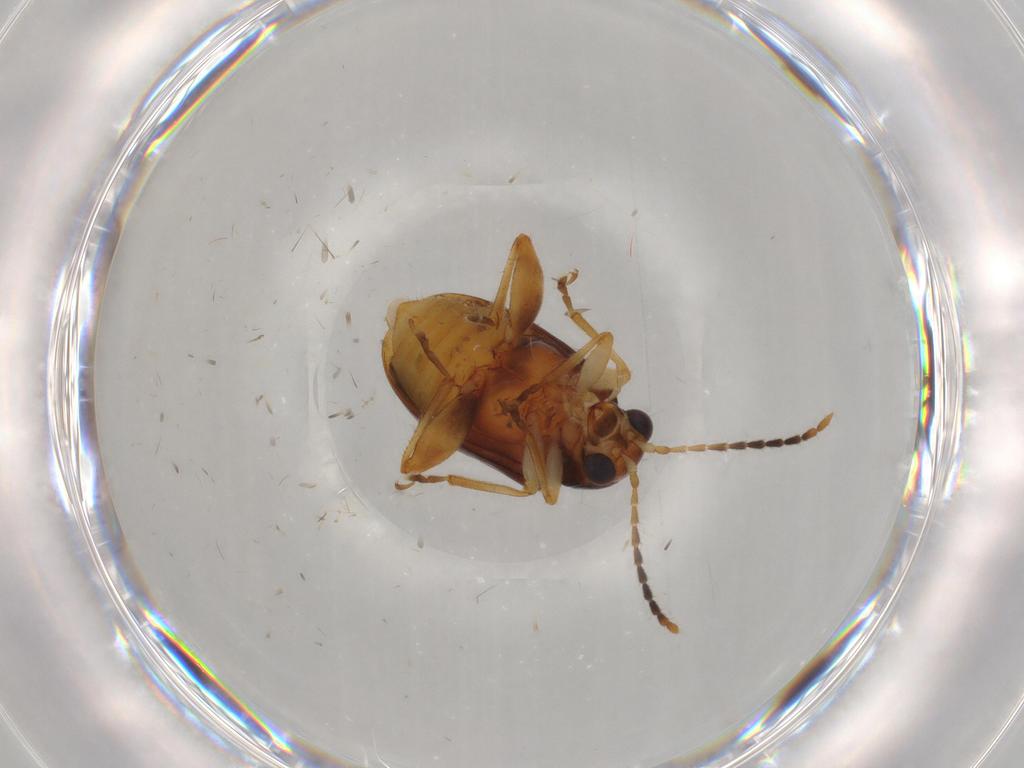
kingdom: Animalia
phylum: Arthropoda
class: Insecta
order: Coleoptera
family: Chrysomelidae
